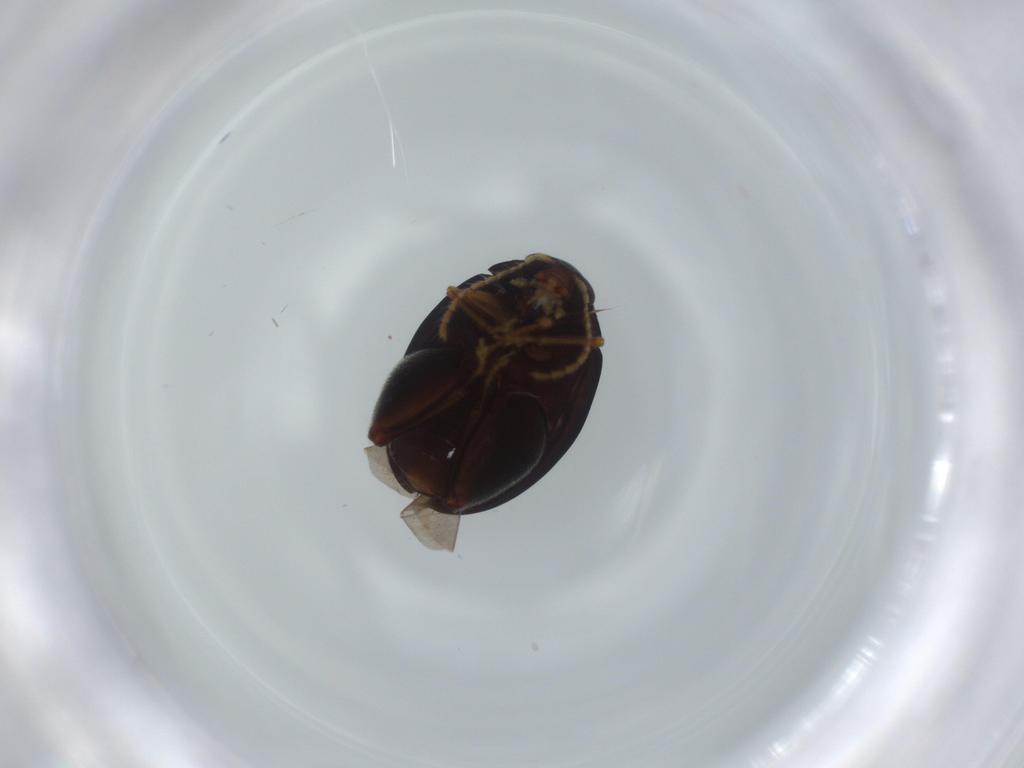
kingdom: Animalia
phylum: Arthropoda
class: Insecta
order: Coleoptera
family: Chrysomelidae
